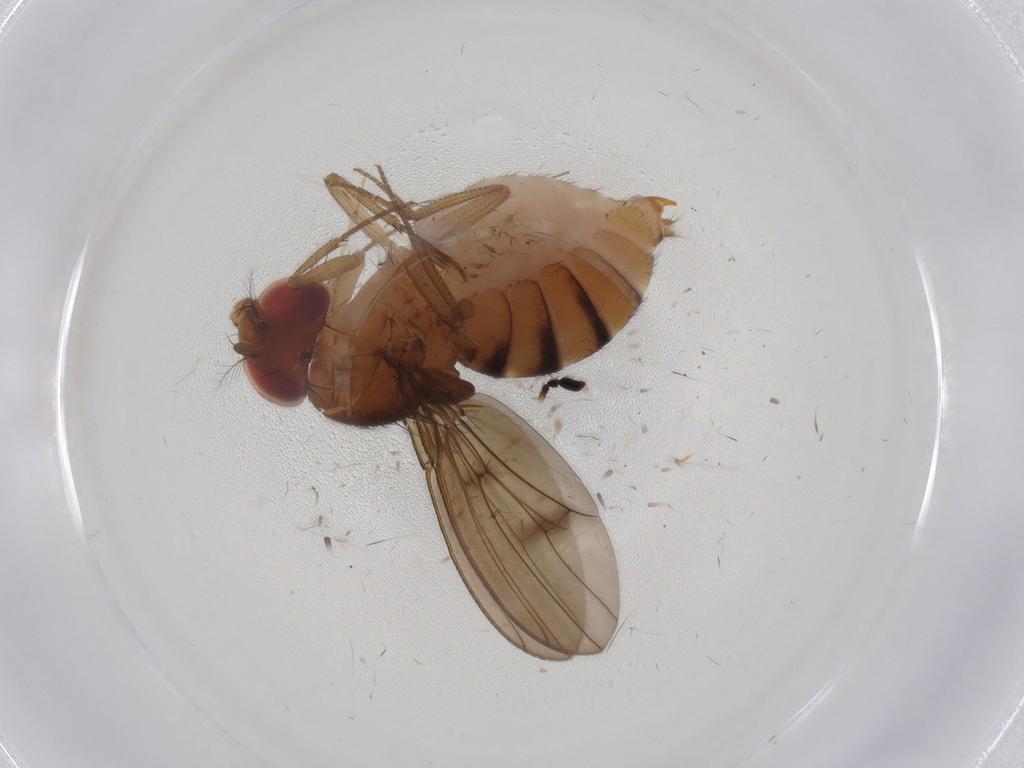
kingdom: Animalia
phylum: Arthropoda
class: Insecta
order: Diptera
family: Drosophilidae
